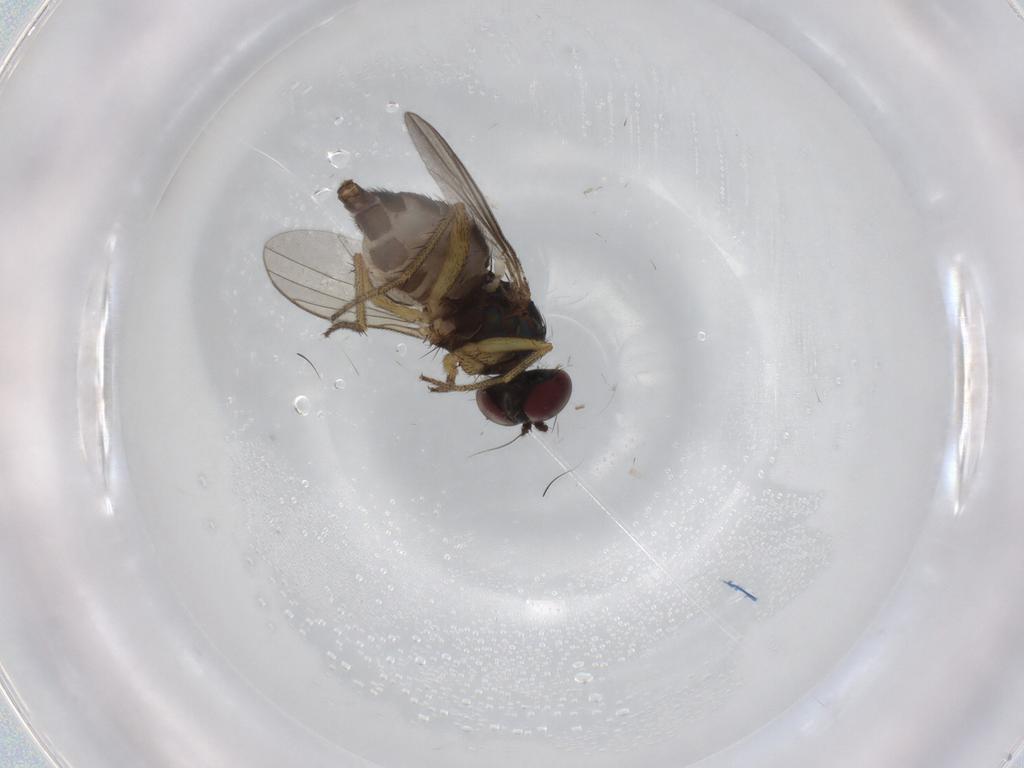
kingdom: Animalia
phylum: Arthropoda
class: Insecta
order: Diptera
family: Dolichopodidae
